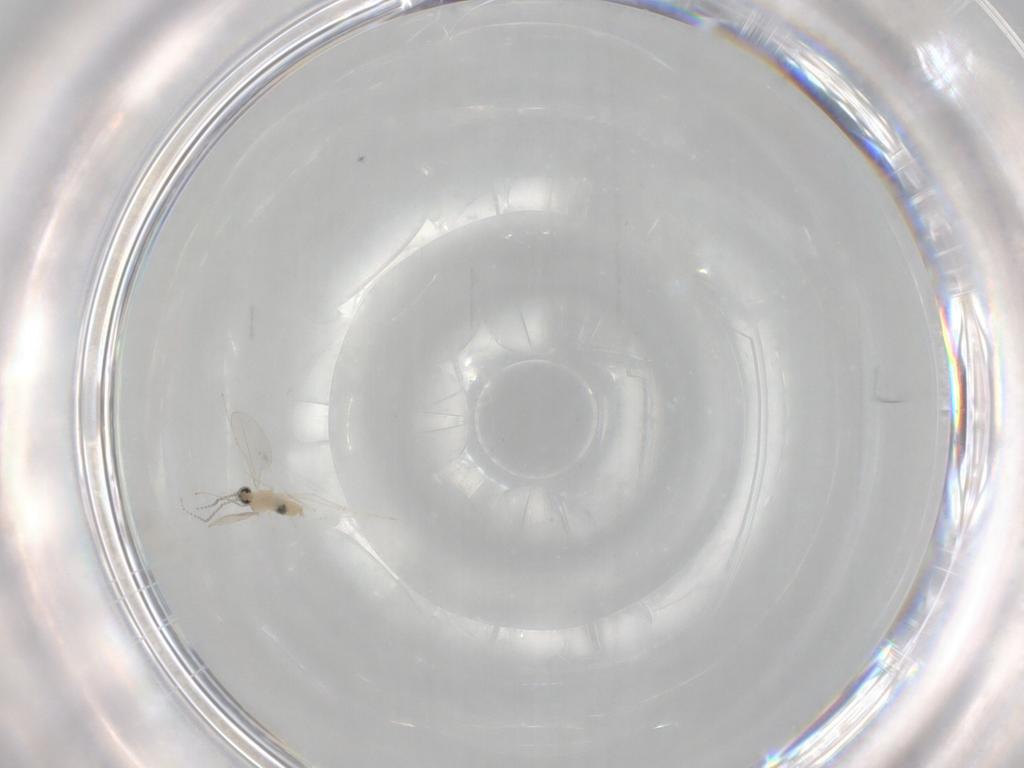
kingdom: Animalia
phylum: Arthropoda
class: Insecta
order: Diptera
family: Cecidomyiidae
